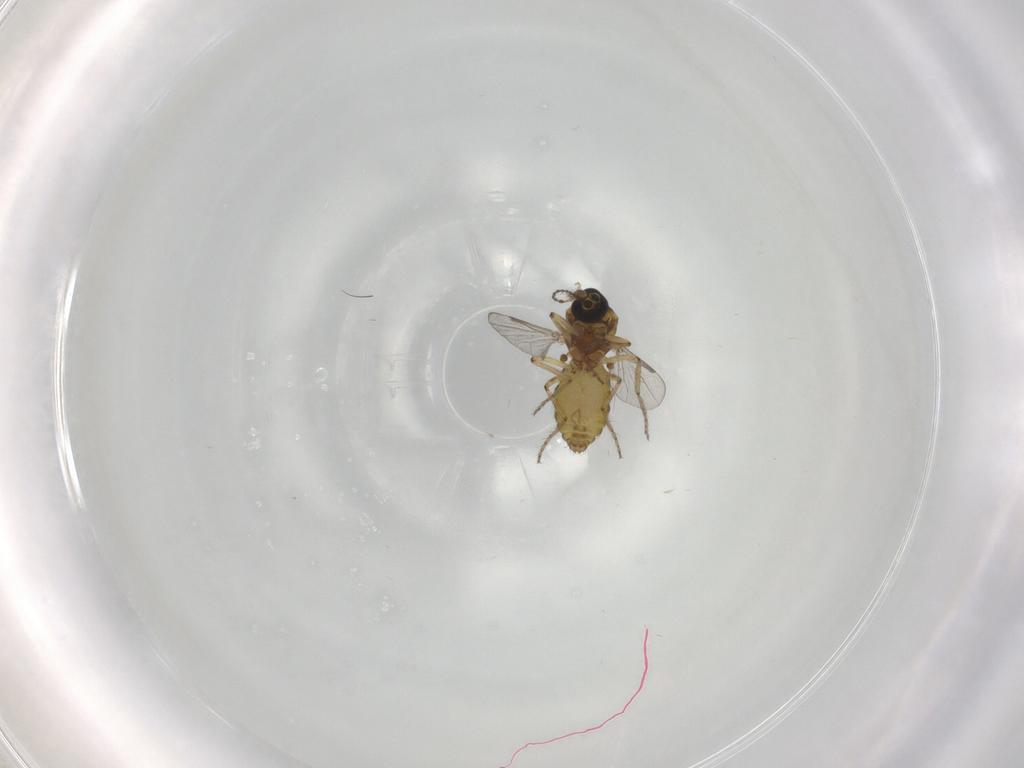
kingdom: Animalia
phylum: Arthropoda
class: Insecta
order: Diptera
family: Ceratopogonidae
